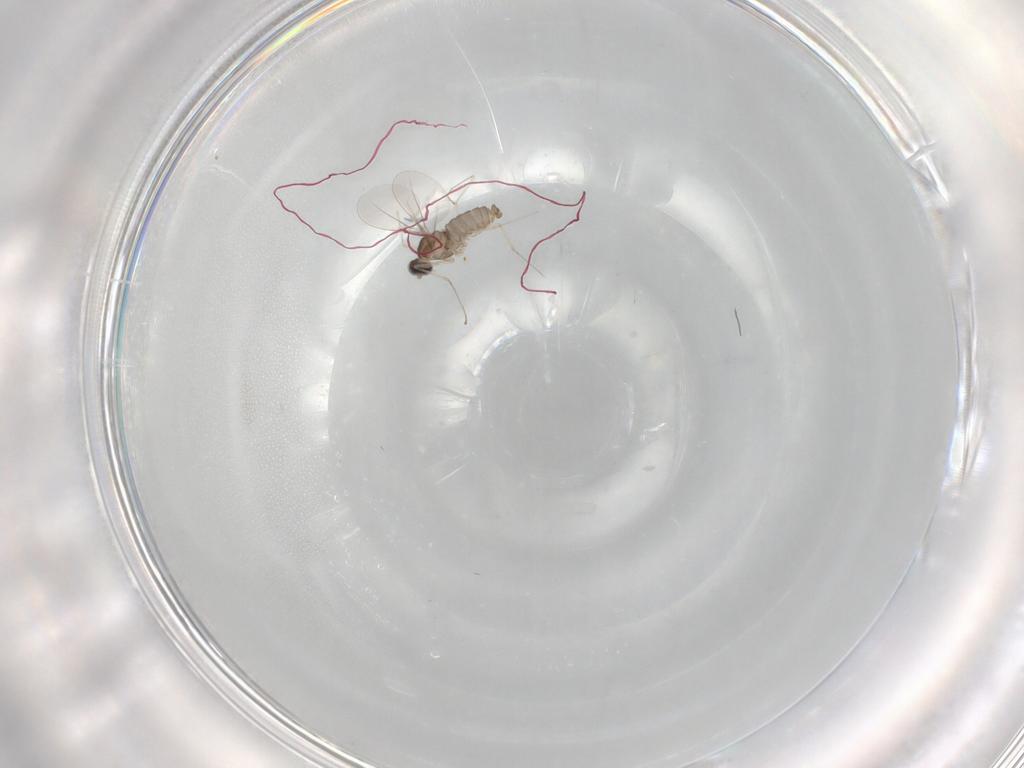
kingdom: Animalia
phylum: Arthropoda
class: Insecta
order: Diptera
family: Cecidomyiidae
